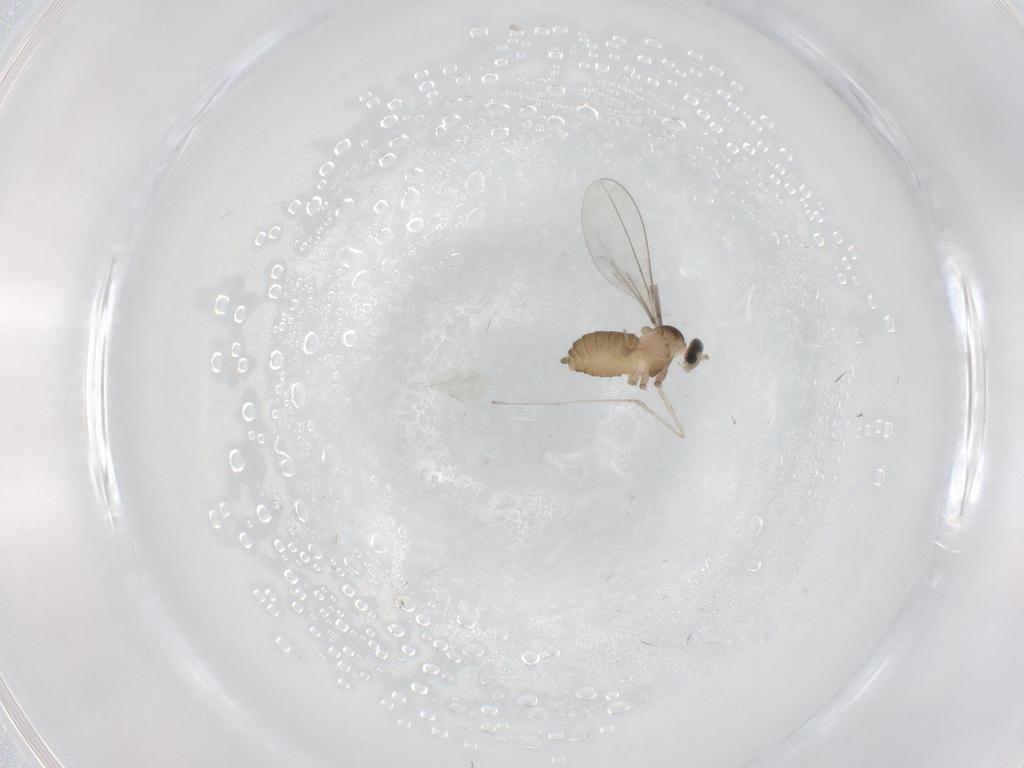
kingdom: Animalia
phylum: Arthropoda
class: Insecta
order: Diptera
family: Cecidomyiidae
